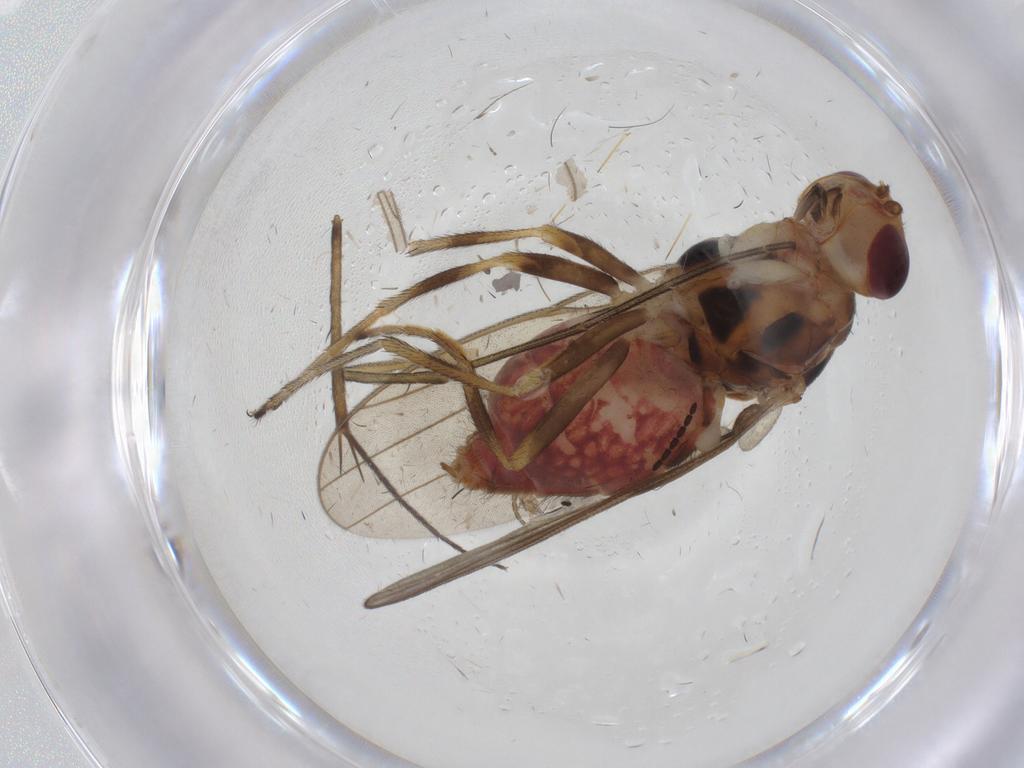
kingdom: Animalia
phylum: Arthropoda
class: Insecta
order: Diptera
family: Chloropidae
